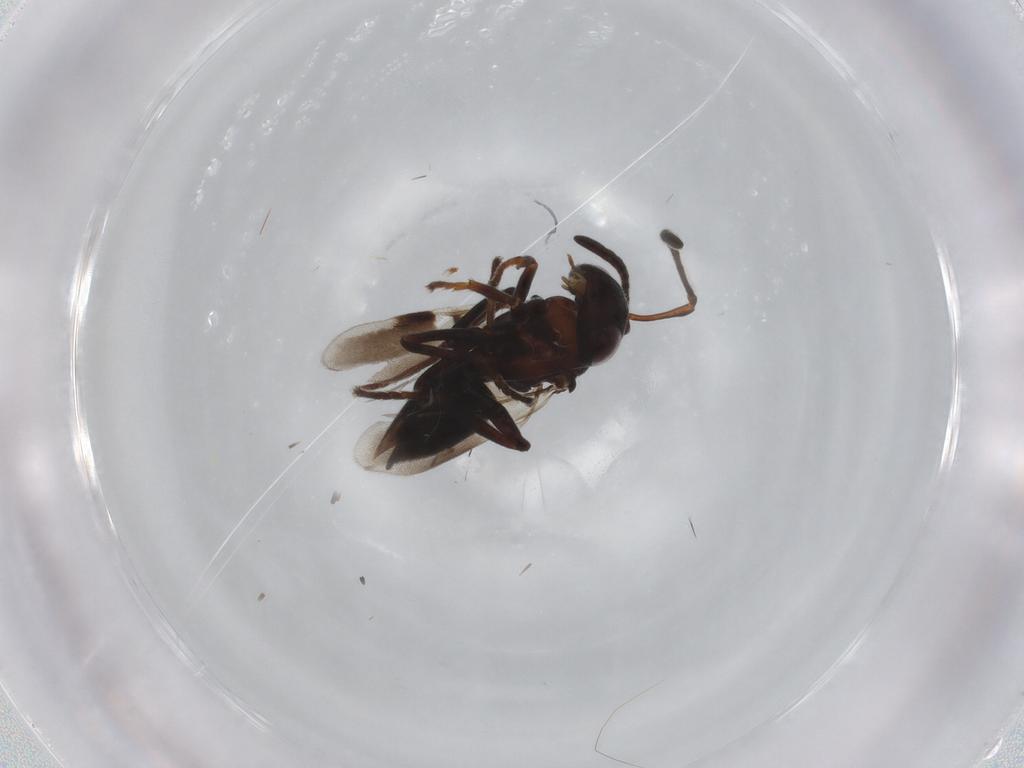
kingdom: Animalia
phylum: Arthropoda
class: Insecta
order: Hymenoptera
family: Encyrtidae
